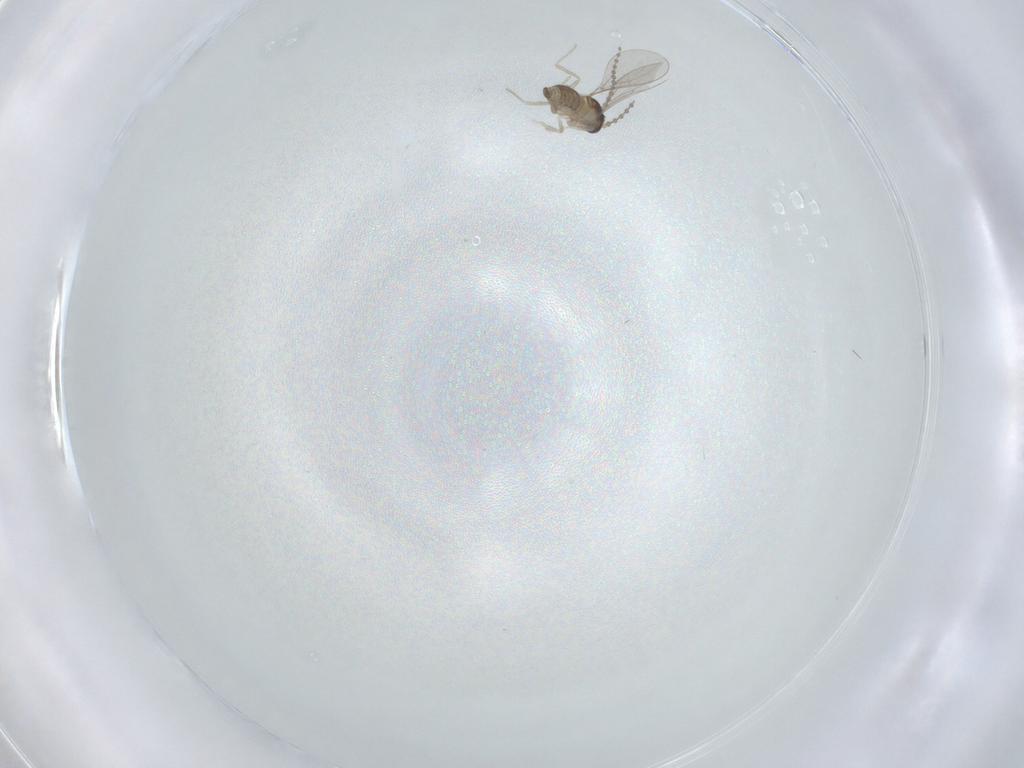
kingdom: Animalia
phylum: Arthropoda
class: Insecta
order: Diptera
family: Cecidomyiidae
